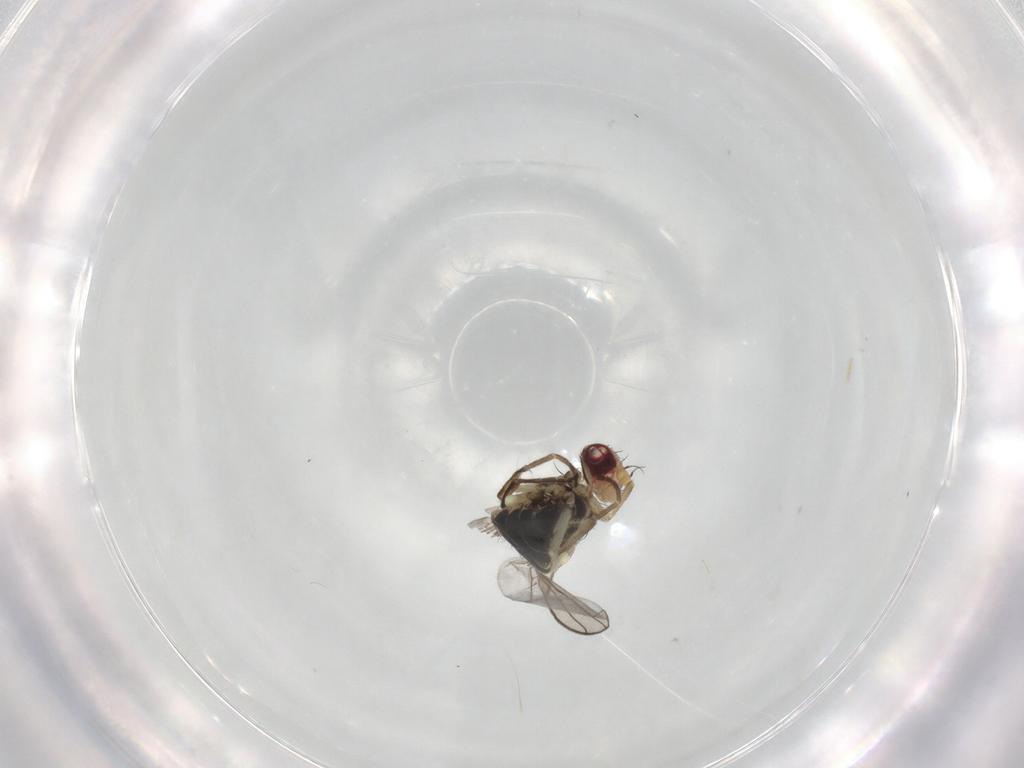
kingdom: Animalia
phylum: Arthropoda
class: Insecta
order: Diptera
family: Agromyzidae
